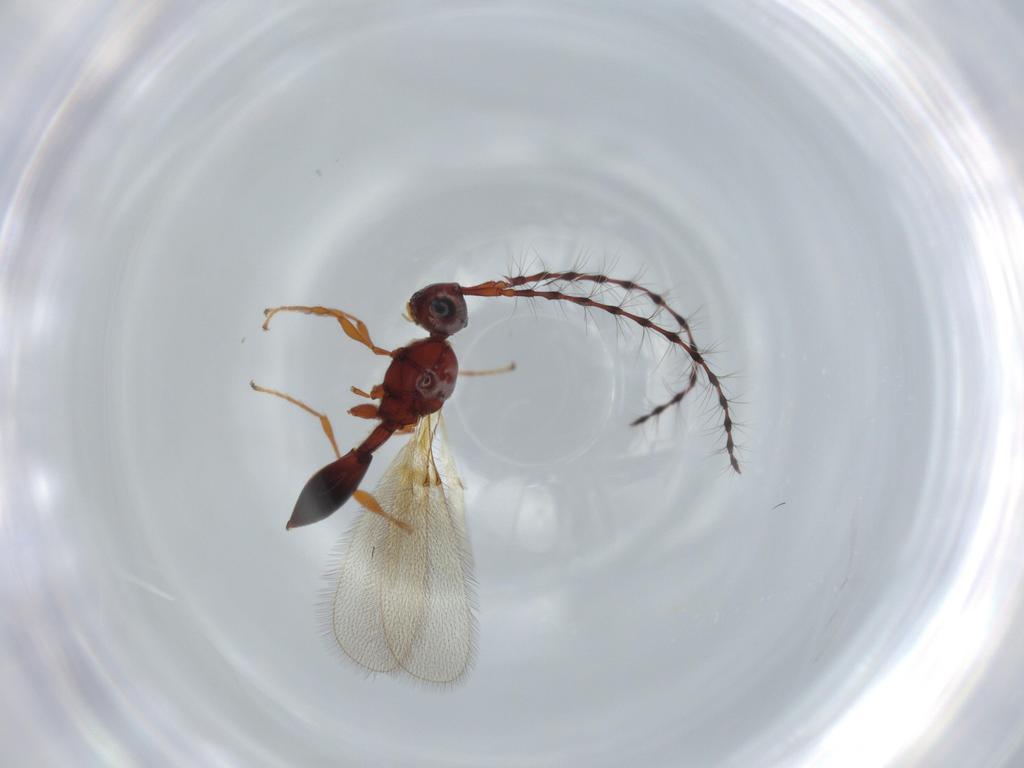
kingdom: Animalia
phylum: Arthropoda
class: Insecta
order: Hymenoptera
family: Diapriidae
